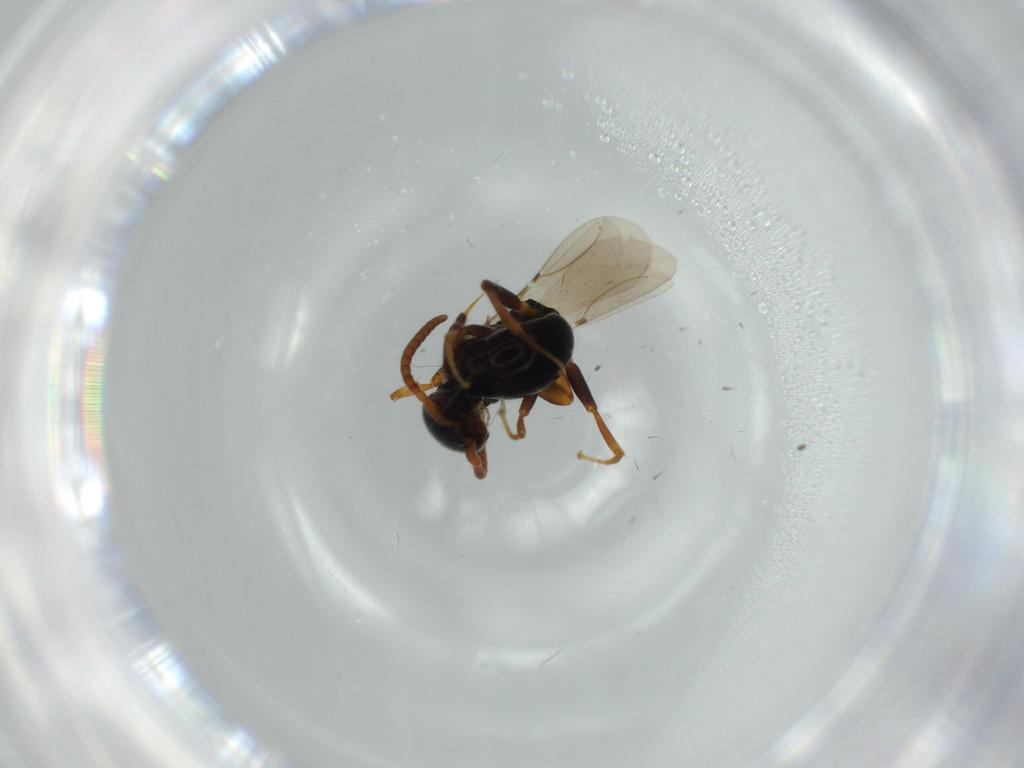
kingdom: Animalia
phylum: Arthropoda
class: Insecta
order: Hymenoptera
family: Bethylidae
